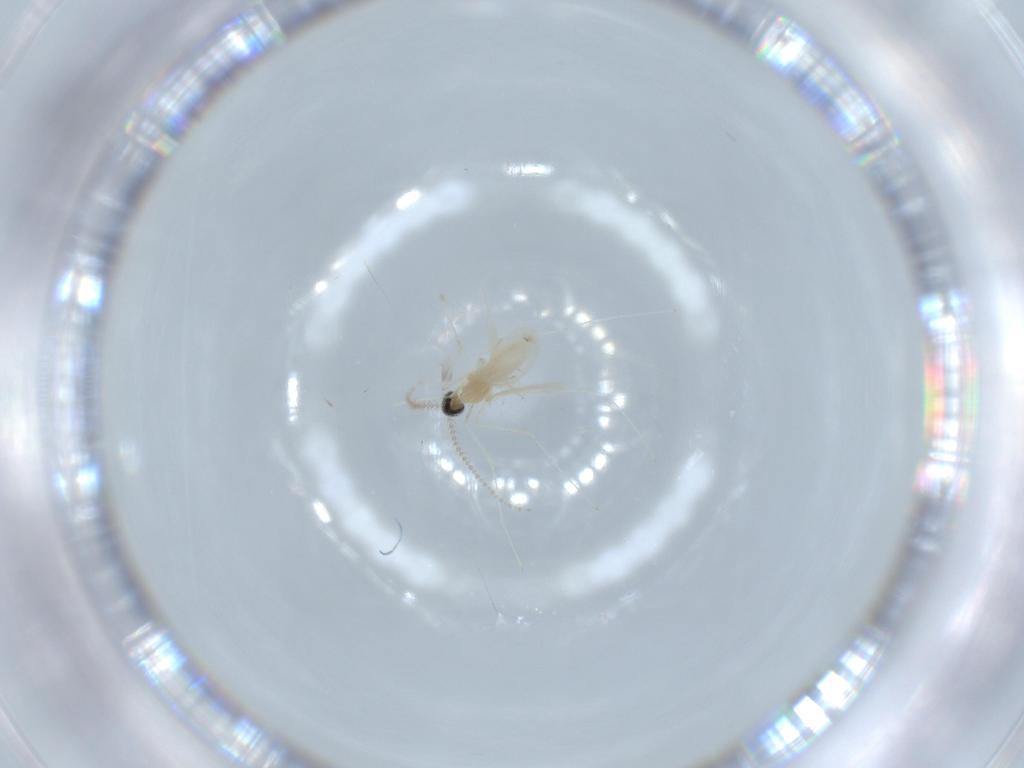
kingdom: Animalia
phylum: Arthropoda
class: Insecta
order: Diptera
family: Cecidomyiidae
